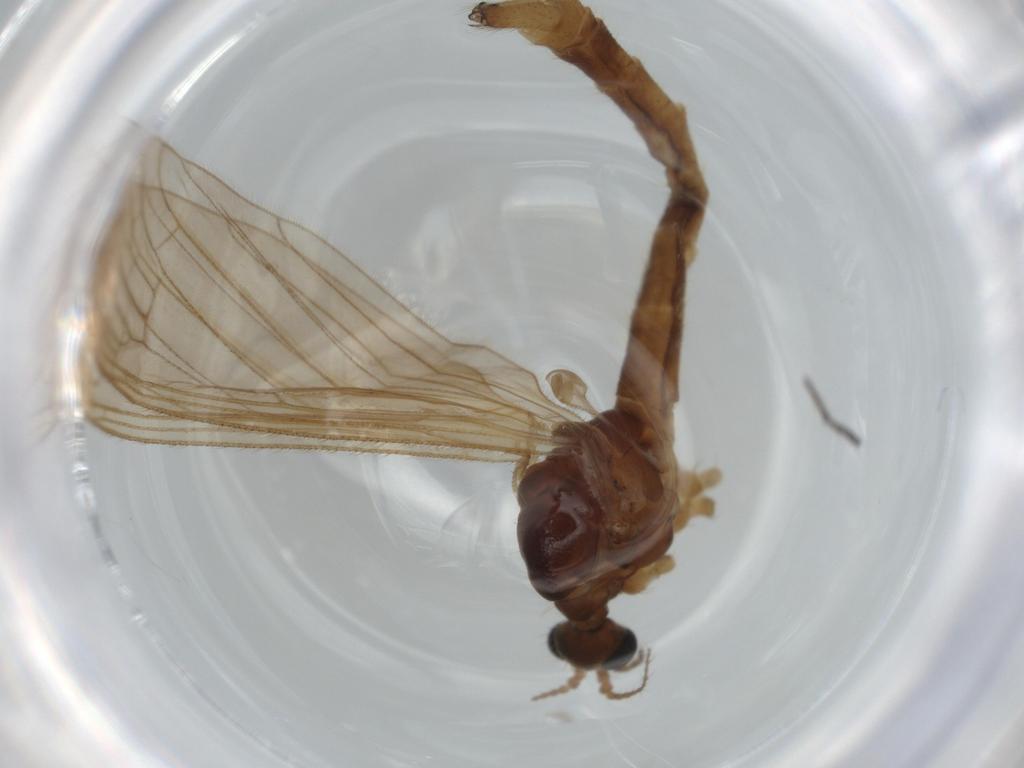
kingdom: Animalia
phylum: Arthropoda
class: Insecta
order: Diptera
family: Limoniidae
